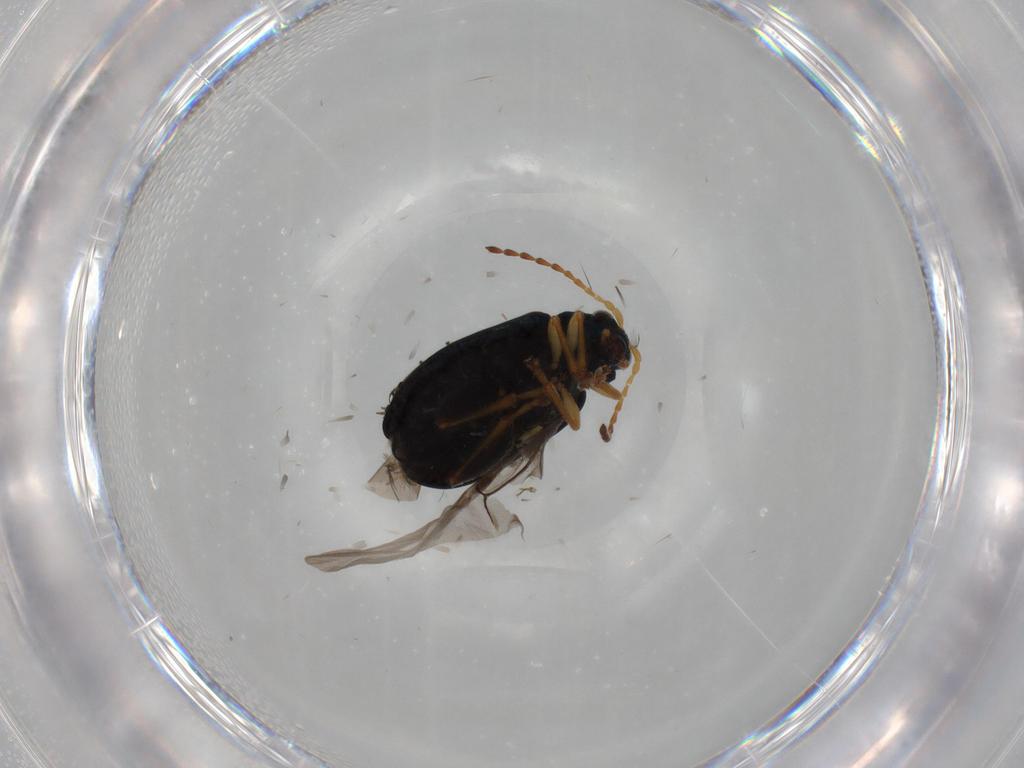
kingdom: Animalia
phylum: Arthropoda
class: Insecta
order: Coleoptera
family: Chrysomelidae
